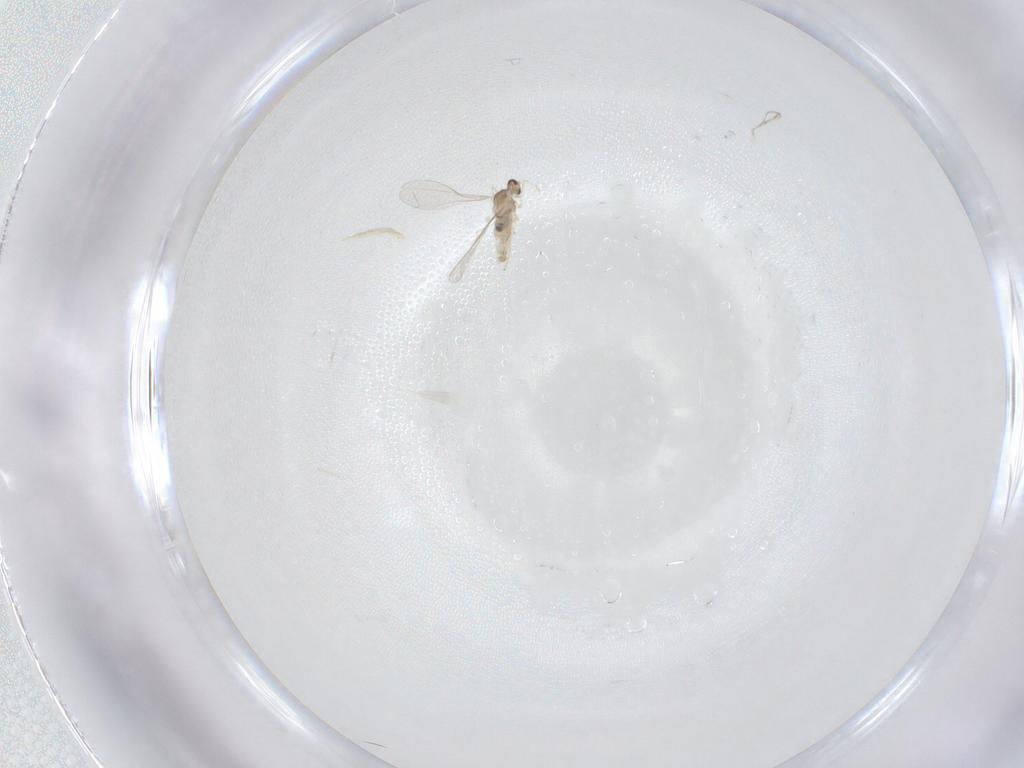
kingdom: Animalia
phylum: Arthropoda
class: Insecta
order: Diptera
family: Cecidomyiidae
